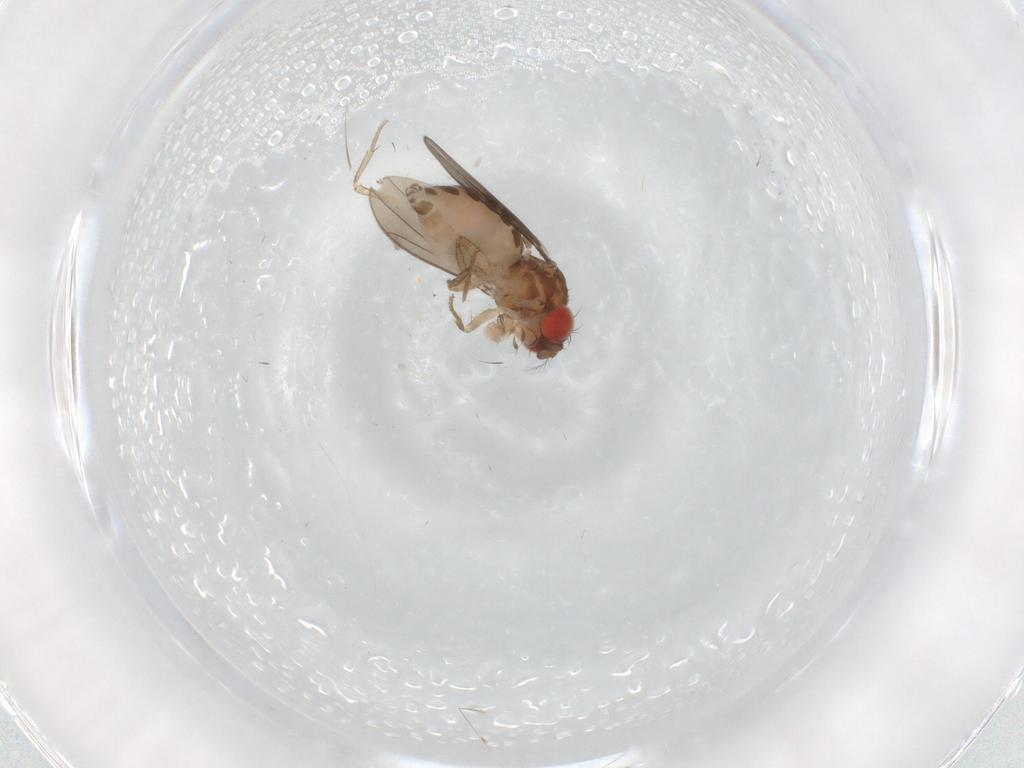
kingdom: Animalia
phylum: Arthropoda
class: Insecta
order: Diptera
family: Drosophilidae
